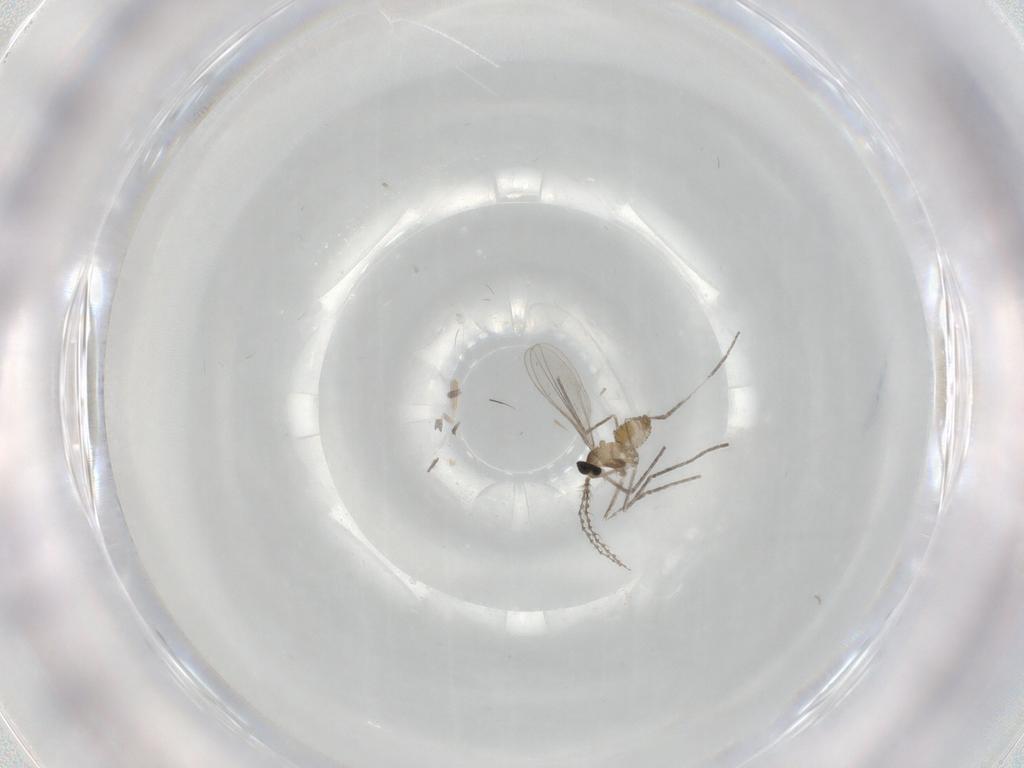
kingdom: Animalia
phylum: Arthropoda
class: Insecta
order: Diptera
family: Cecidomyiidae
